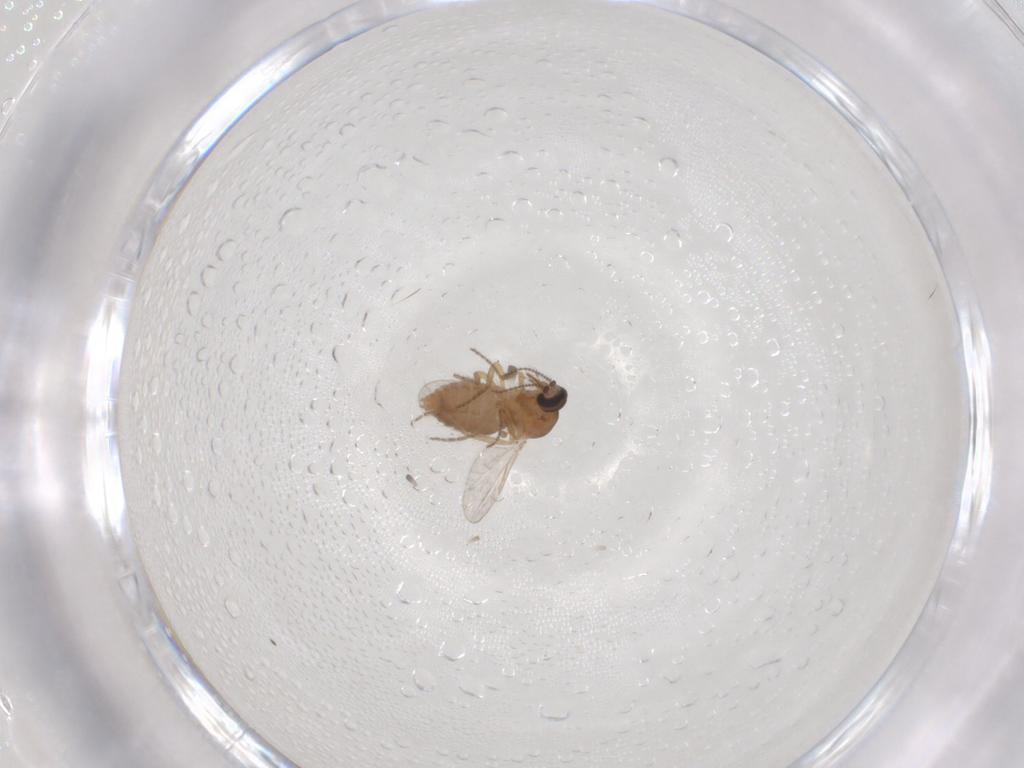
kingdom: Animalia
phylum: Arthropoda
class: Insecta
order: Diptera
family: Ceratopogonidae
